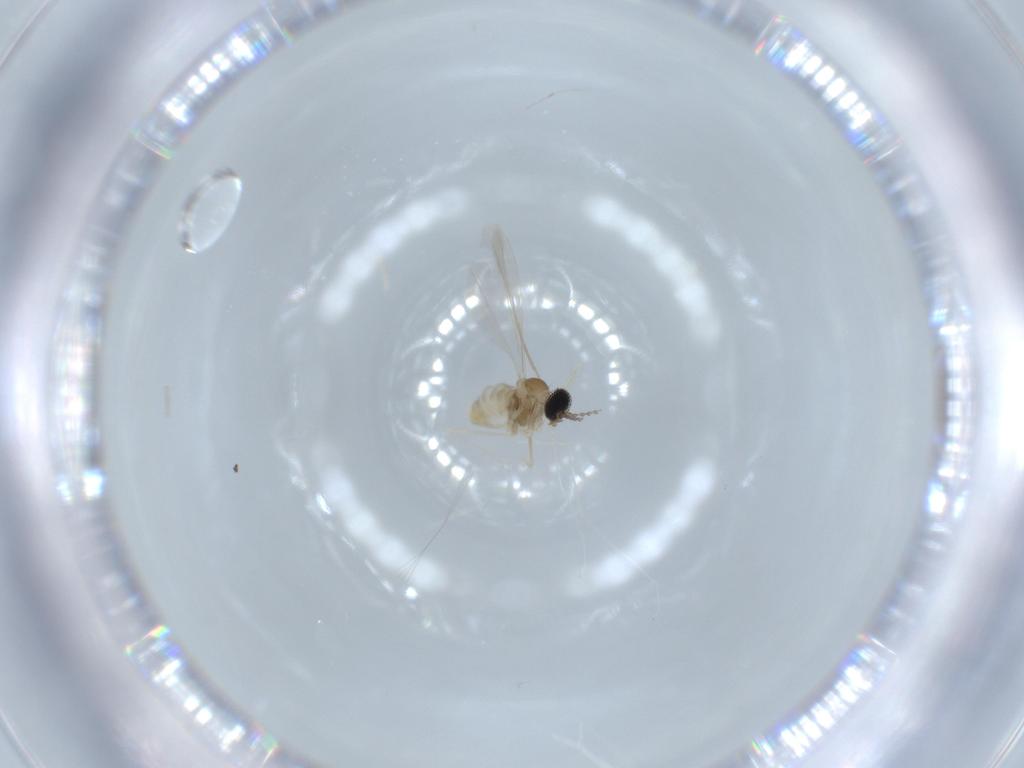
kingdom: Animalia
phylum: Arthropoda
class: Insecta
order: Diptera
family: Cecidomyiidae
